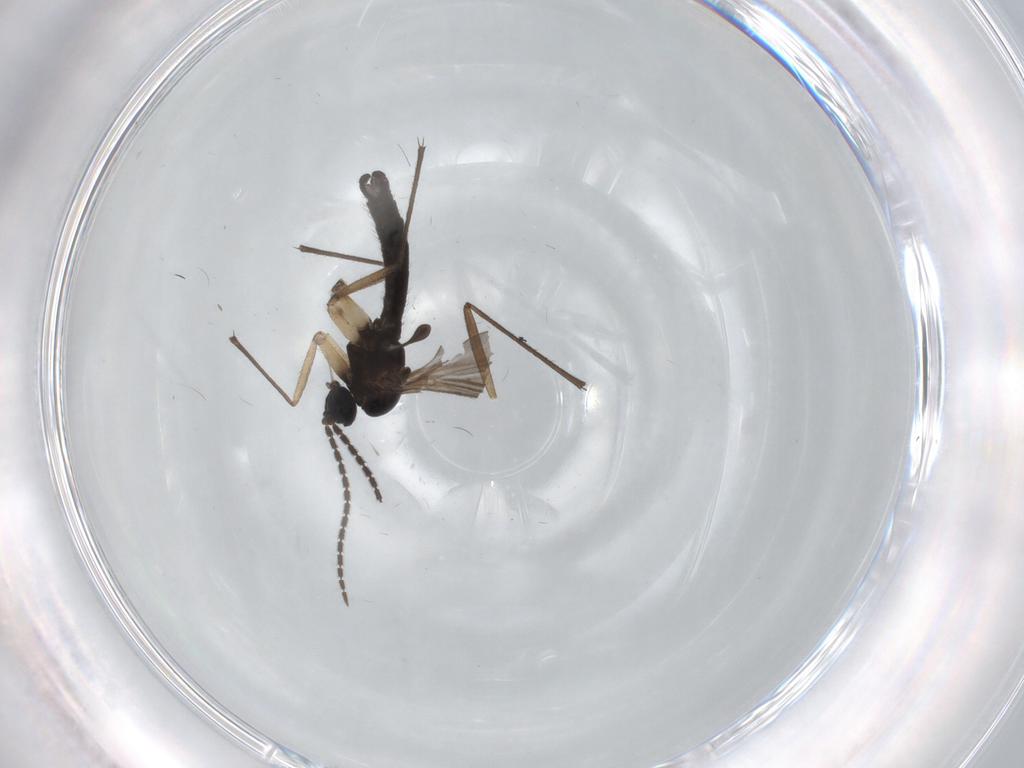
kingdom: Animalia
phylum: Arthropoda
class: Insecta
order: Diptera
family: Sciaridae
